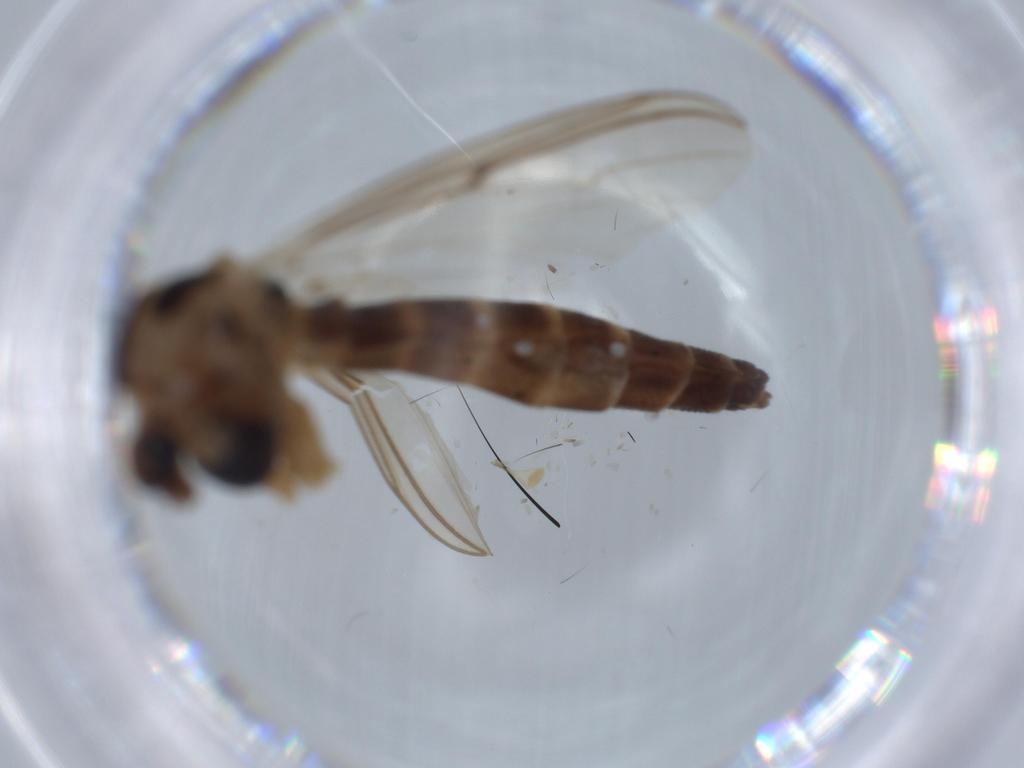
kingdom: Animalia
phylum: Arthropoda
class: Insecta
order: Diptera
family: Chironomidae
